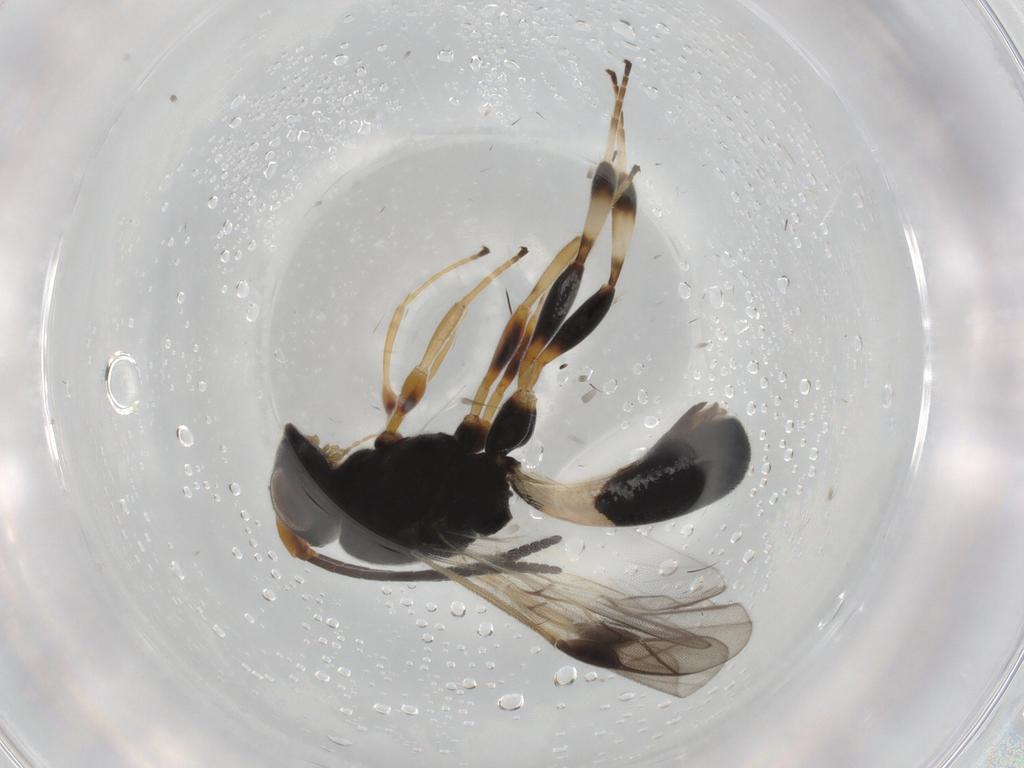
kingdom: Animalia
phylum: Arthropoda
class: Insecta
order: Hymenoptera
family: Braconidae
